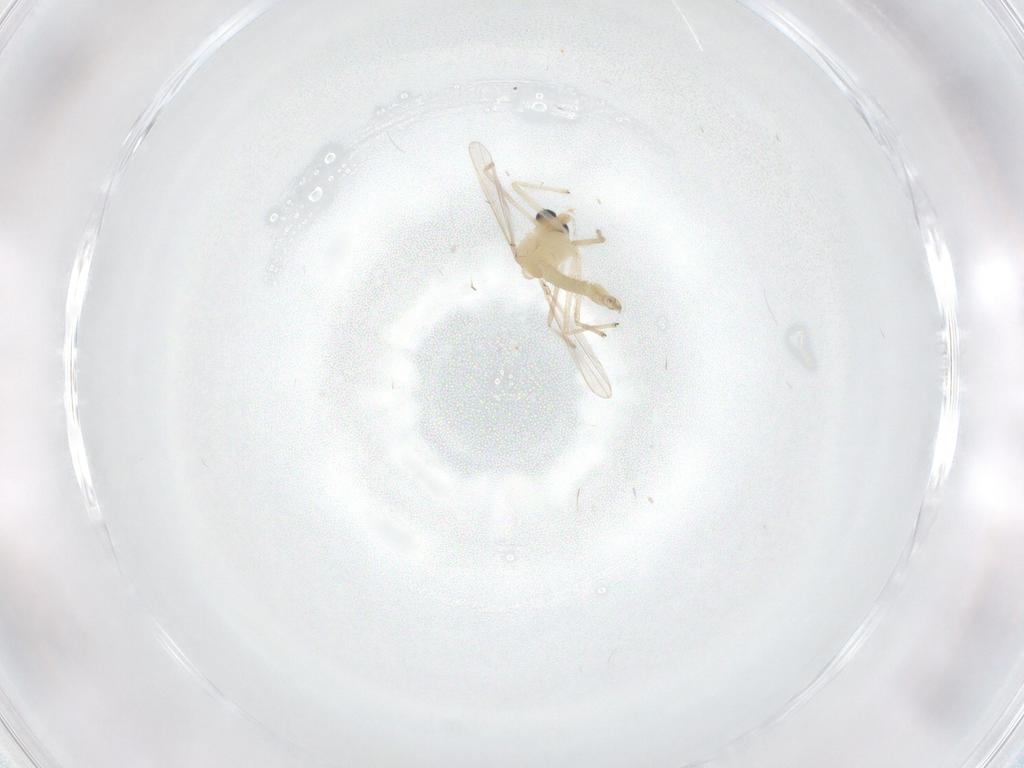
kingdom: Animalia
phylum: Arthropoda
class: Insecta
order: Diptera
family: Chironomidae
